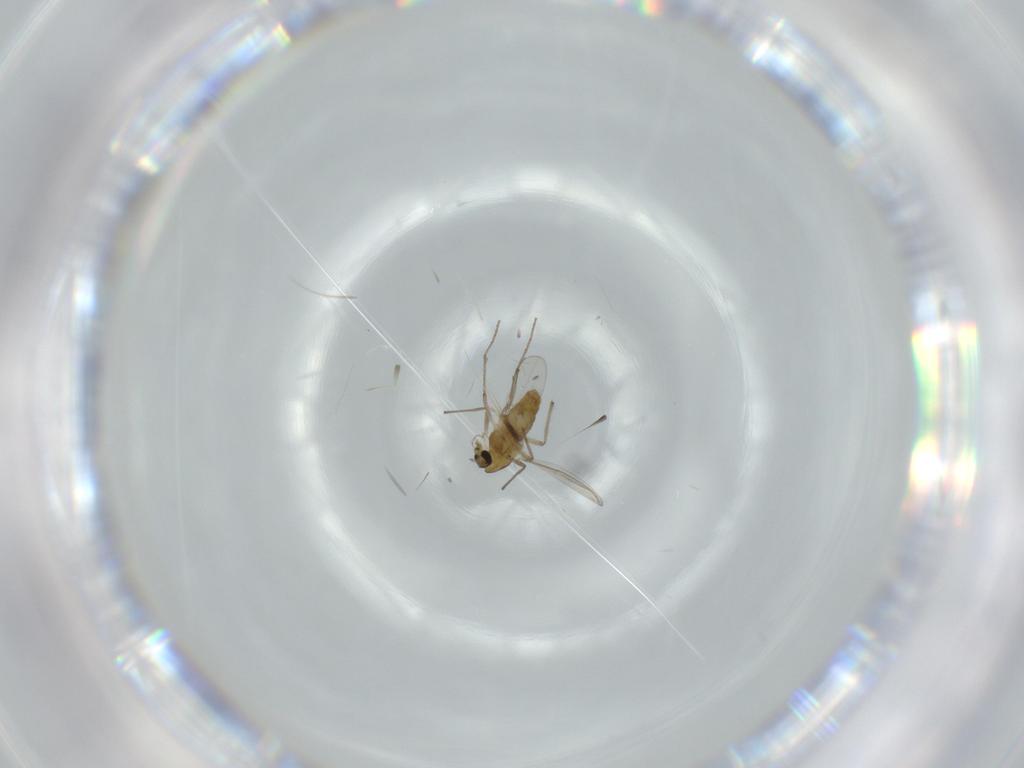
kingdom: Animalia
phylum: Arthropoda
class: Insecta
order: Diptera
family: Chironomidae
